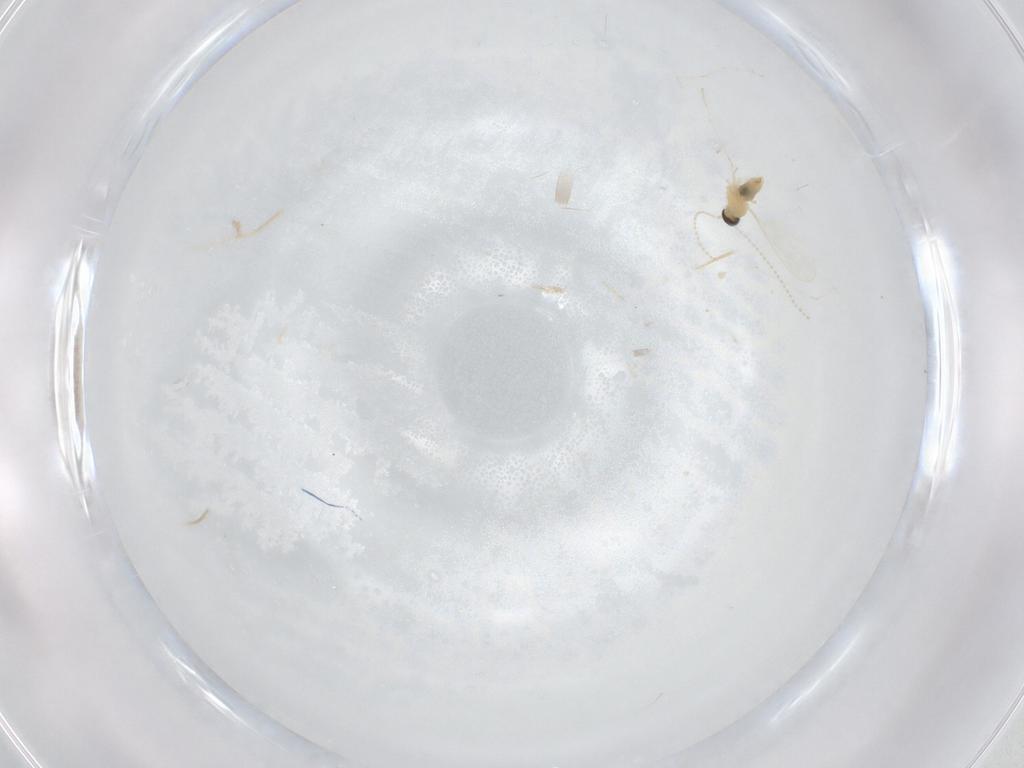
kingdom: Animalia
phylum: Arthropoda
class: Insecta
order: Diptera
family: Cecidomyiidae
